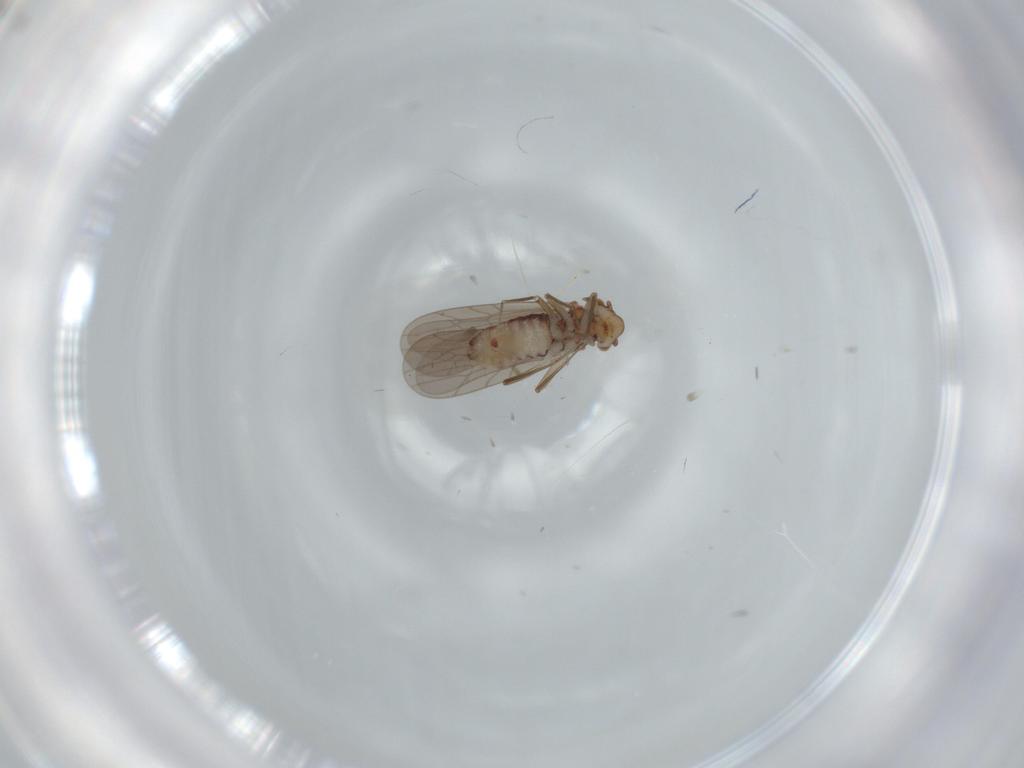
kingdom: Animalia
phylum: Arthropoda
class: Insecta
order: Psocodea
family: Lepidopsocidae
